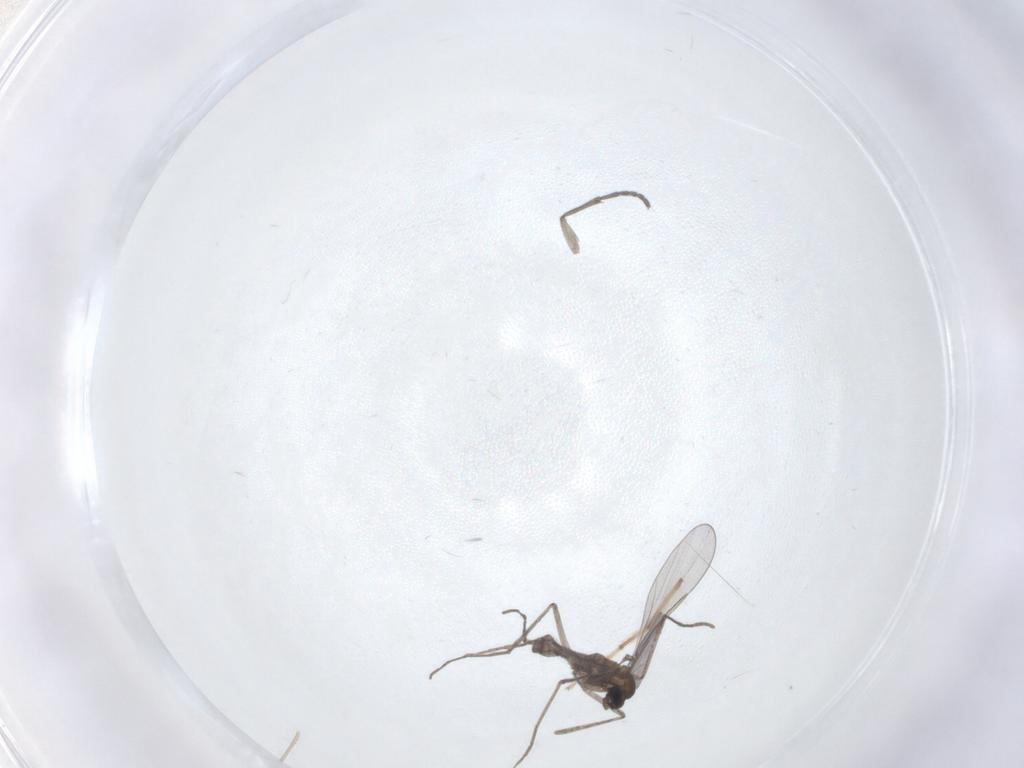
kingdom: Animalia
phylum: Arthropoda
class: Insecta
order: Diptera
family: Cecidomyiidae
